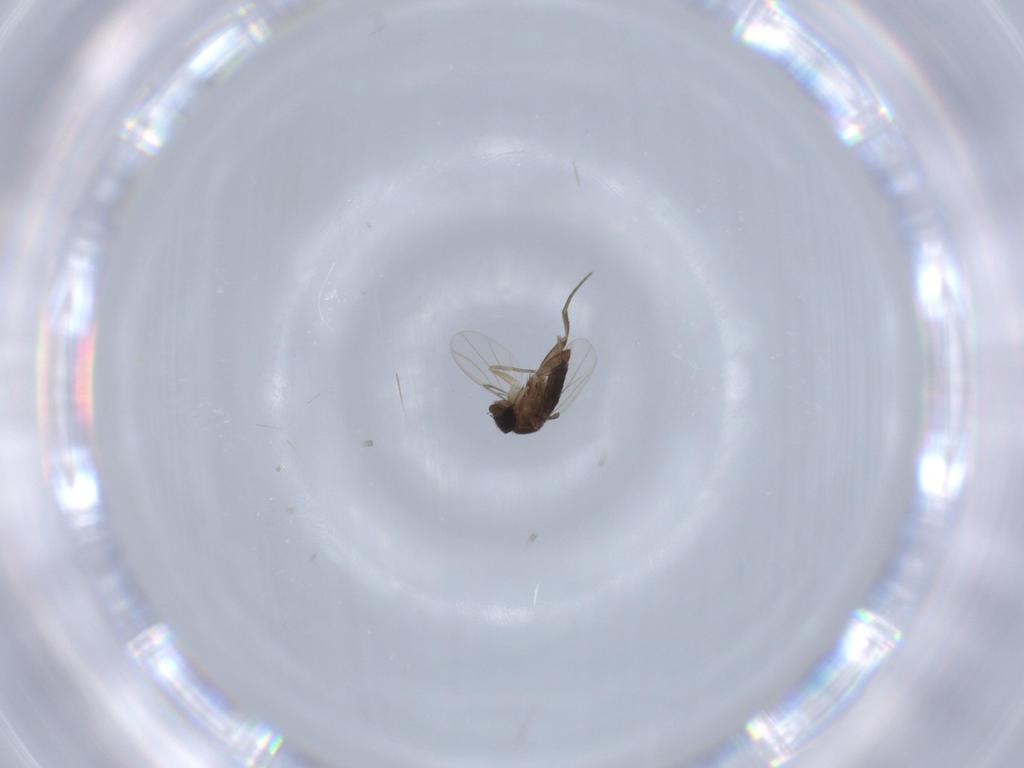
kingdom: Animalia
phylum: Arthropoda
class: Insecta
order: Diptera
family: Phoridae
